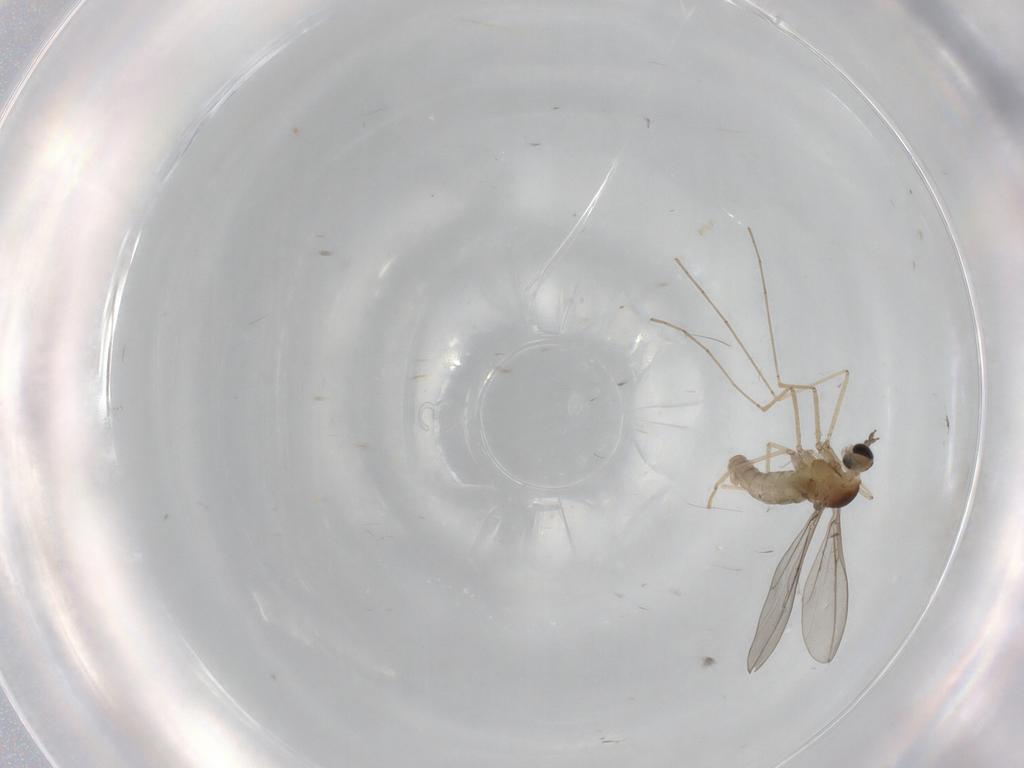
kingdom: Animalia
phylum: Arthropoda
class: Insecta
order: Diptera
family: Cecidomyiidae
